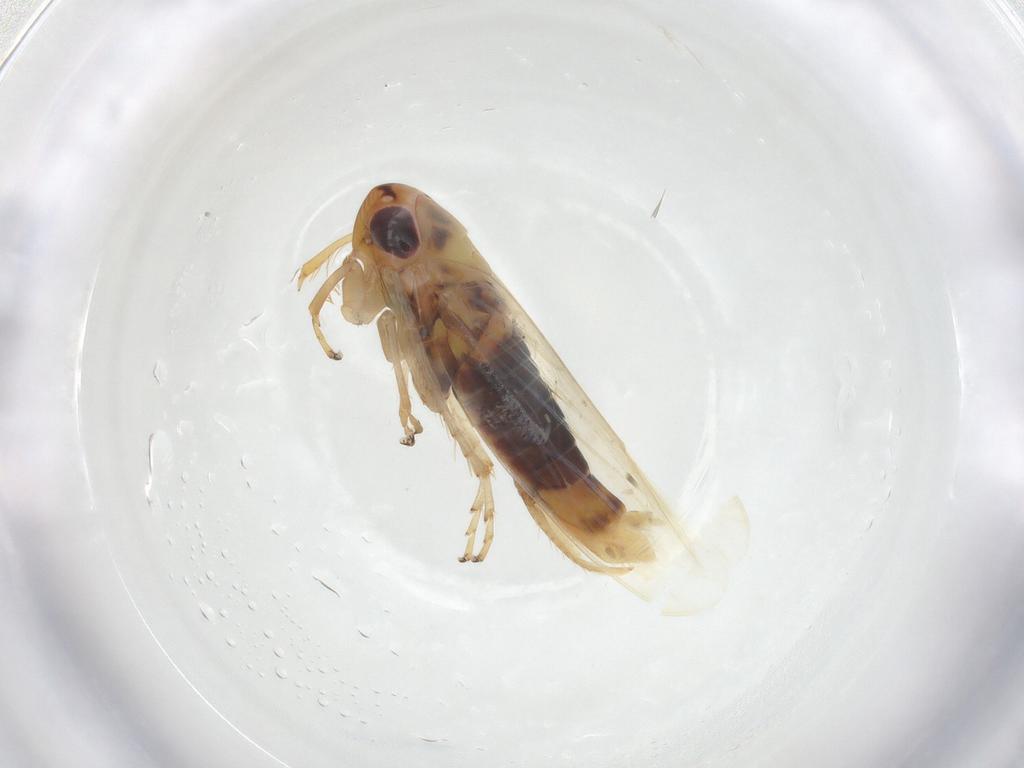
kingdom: Animalia
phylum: Arthropoda
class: Insecta
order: Hemiptera
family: Cicadellidae
